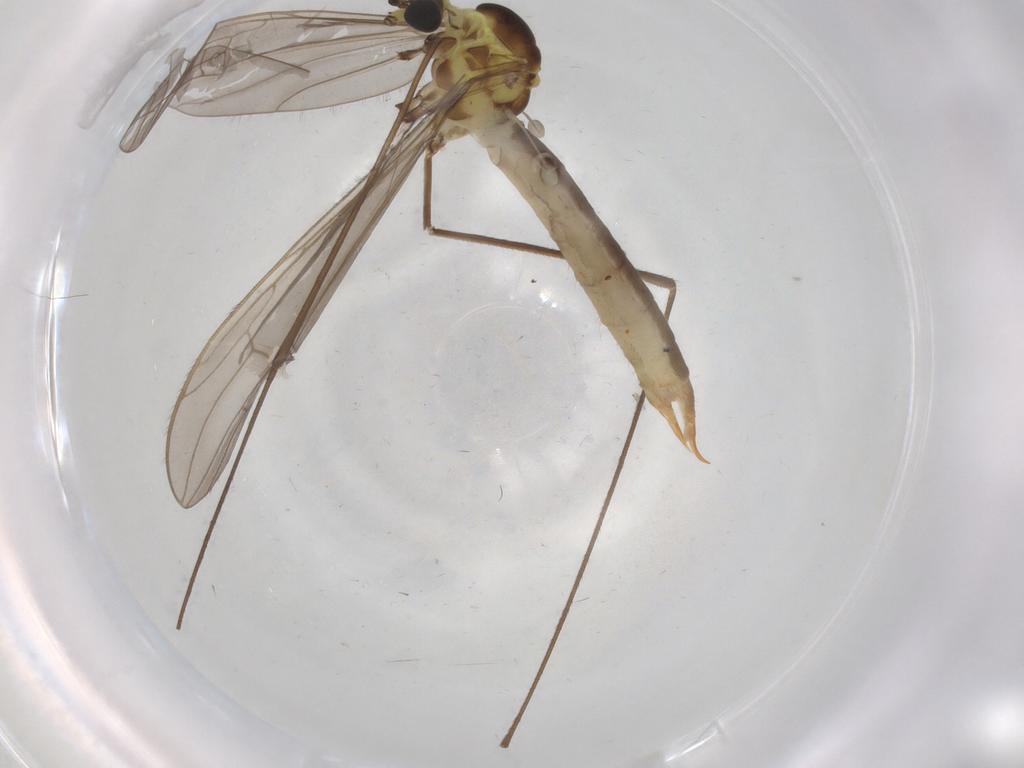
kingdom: Animalia
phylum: Arthropoda
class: Insecta
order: Diptera
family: Limoniidae
